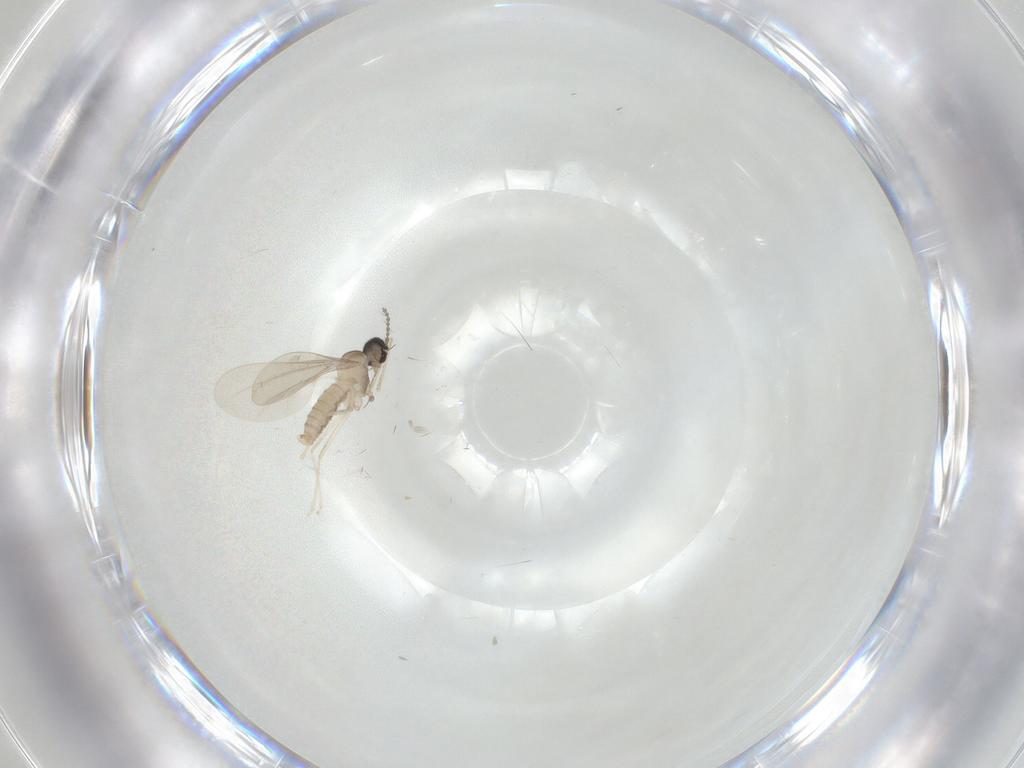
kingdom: Animalia
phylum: Arthropoda
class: Insecta
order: Diptera
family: Cecidomyiidae
